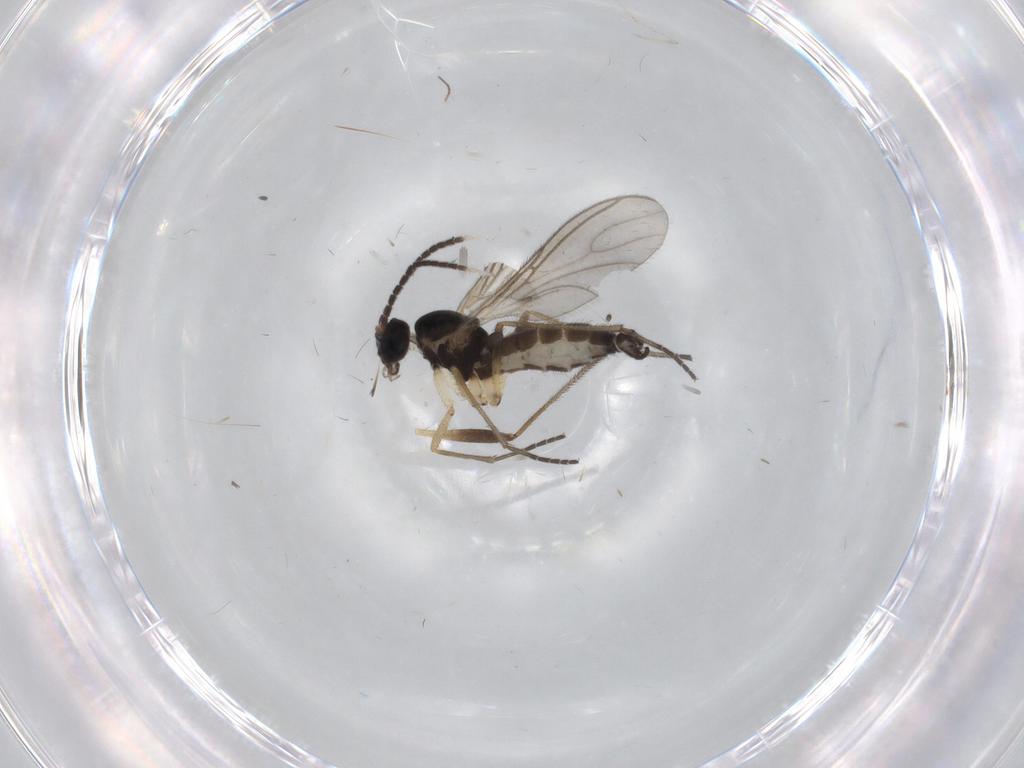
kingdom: Animalia
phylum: Arthropoda
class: Insecta
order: Diptera
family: Sciaridae
